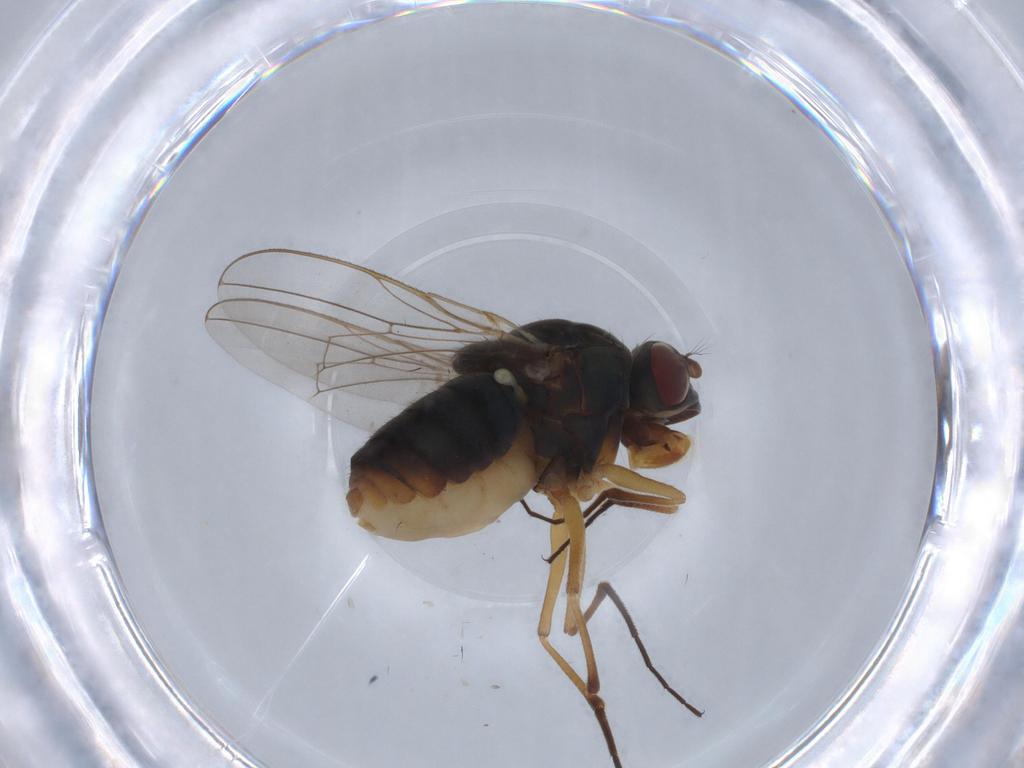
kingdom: Animalia
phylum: Arthropoda
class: Insecta
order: Diptera
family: Ephydridae
